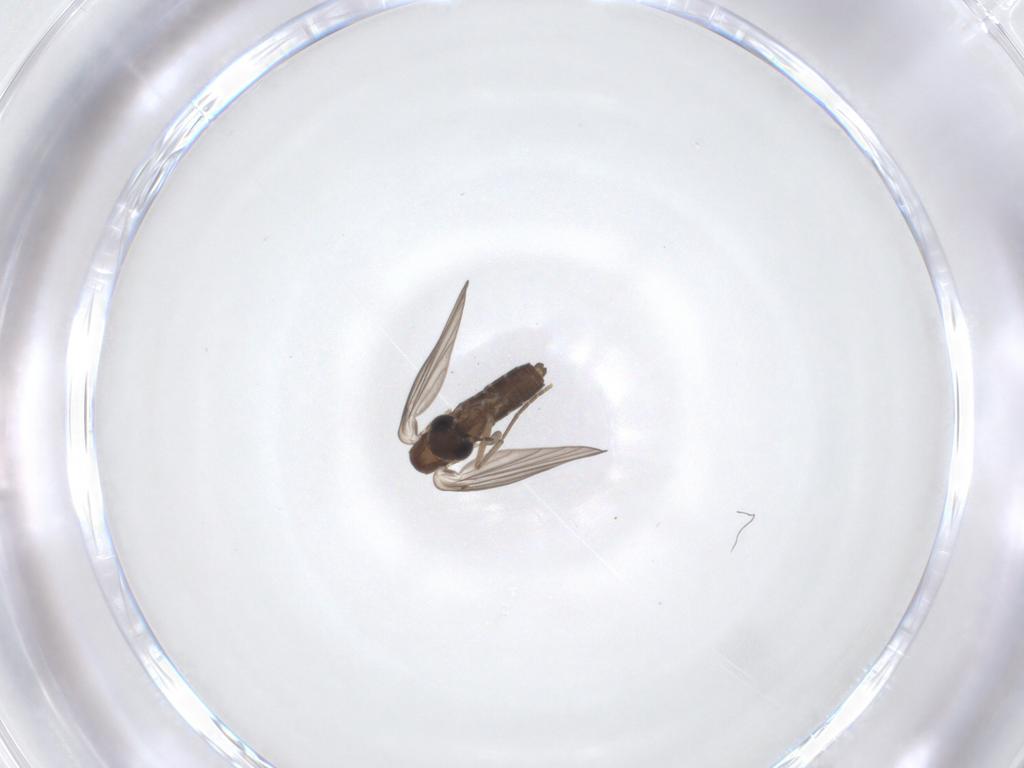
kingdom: Animalia
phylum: Arthropoda
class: Insecta
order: Diptera
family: Psychodidae
